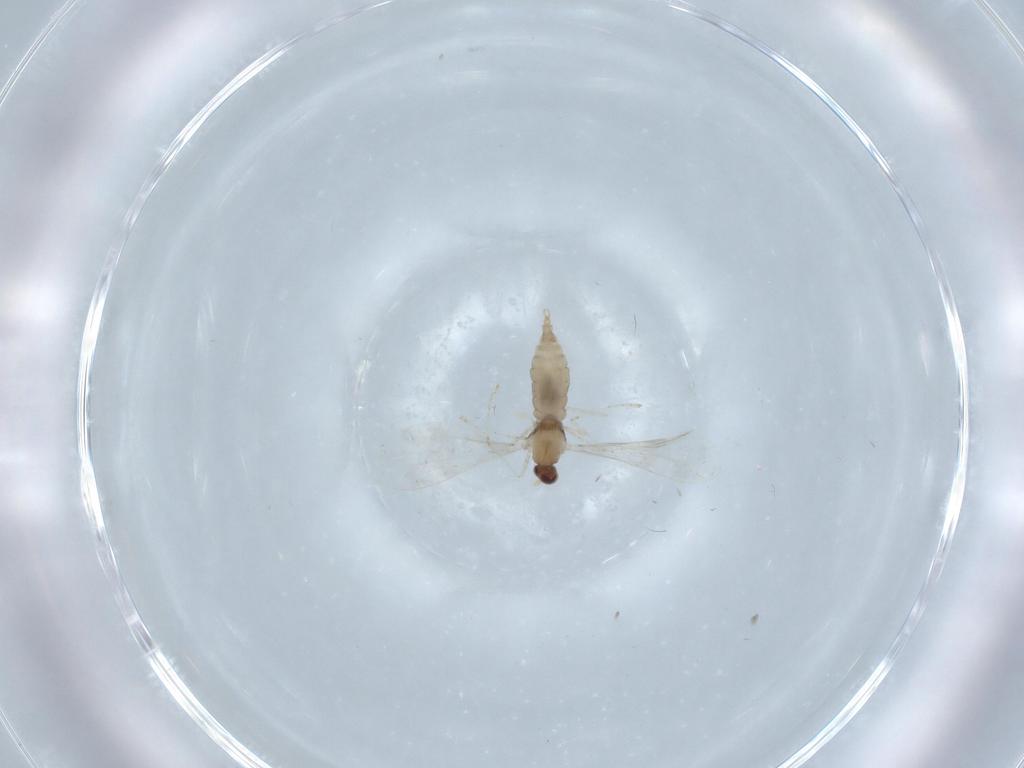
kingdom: Animalia
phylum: Arthropoda
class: Insecta
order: Diptera
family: Cecidomyiidae
